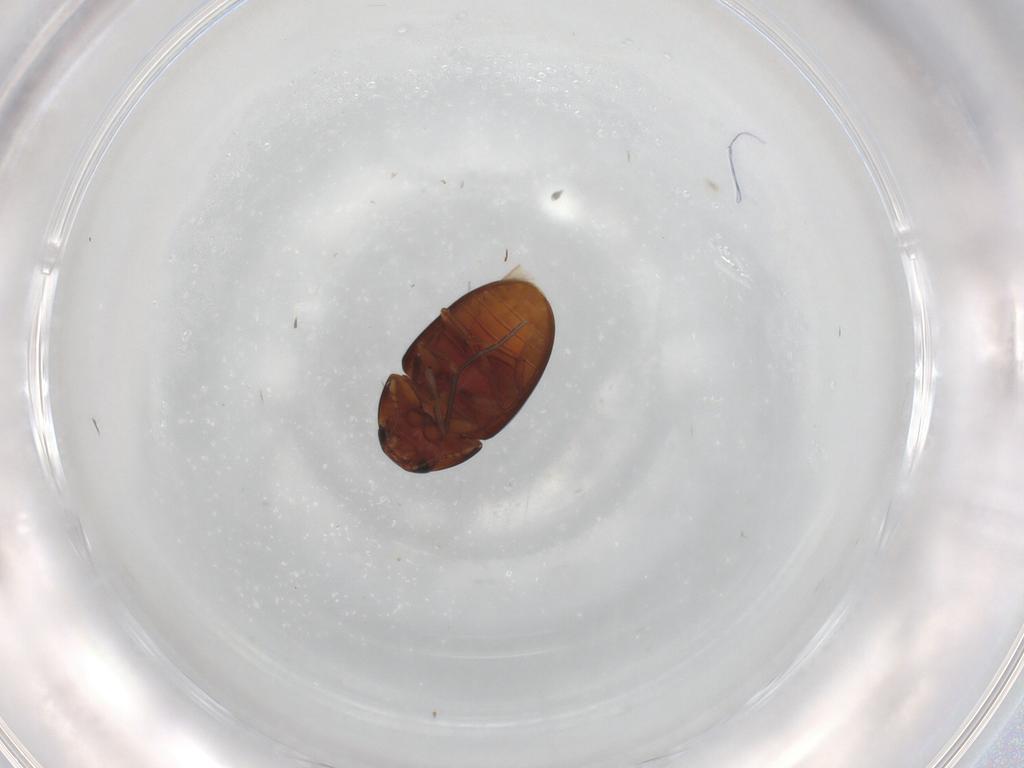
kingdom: Animalia
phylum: Arthropoda
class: Insecta
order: Coleoptera
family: Phalacridae
